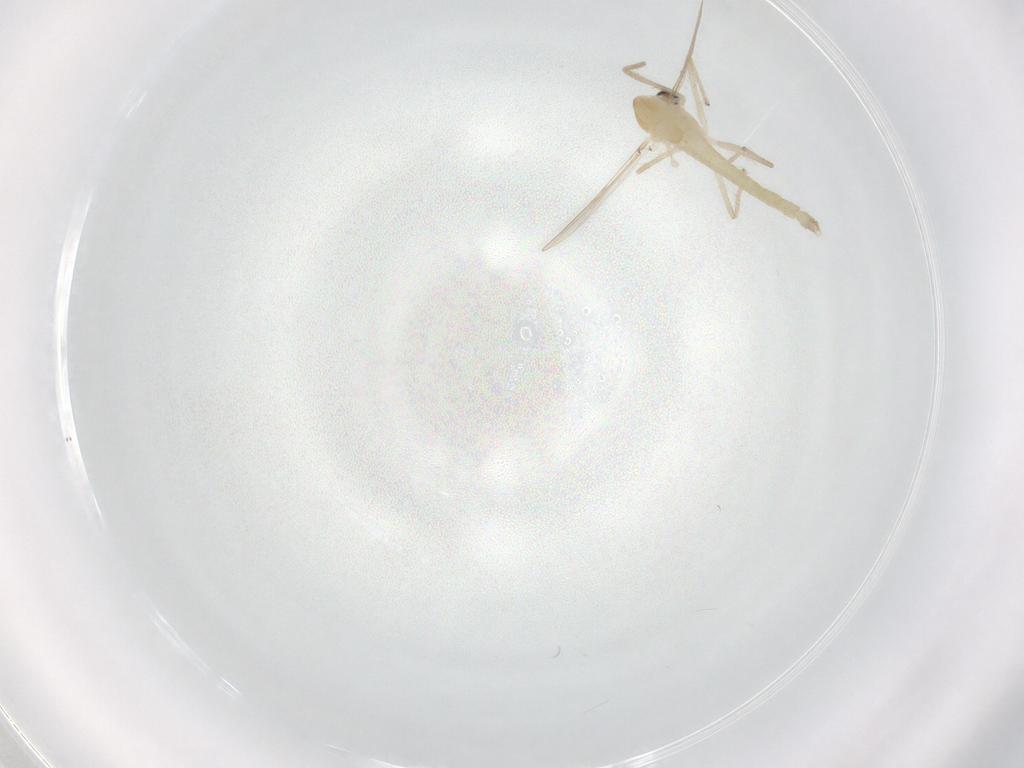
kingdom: Animalia
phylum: Arthropoda
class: Insecta
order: Diptera
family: Chironomidae
